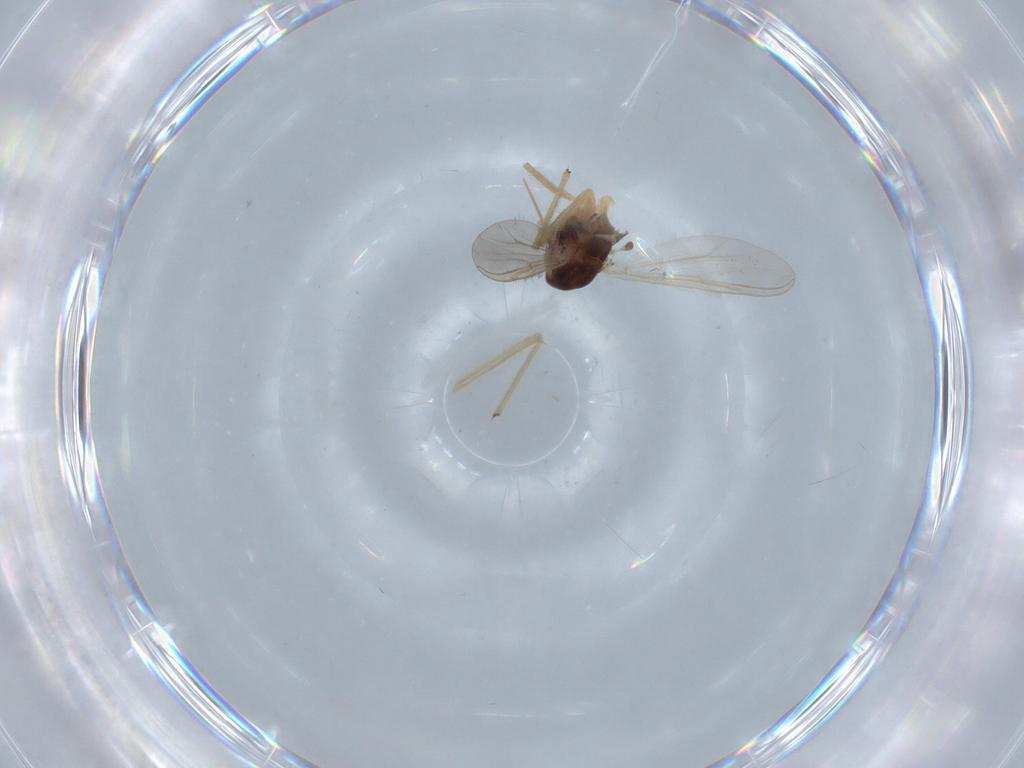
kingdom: Animalia
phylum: Arthropoda
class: Insecta
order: Diptera
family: Chironomidae
